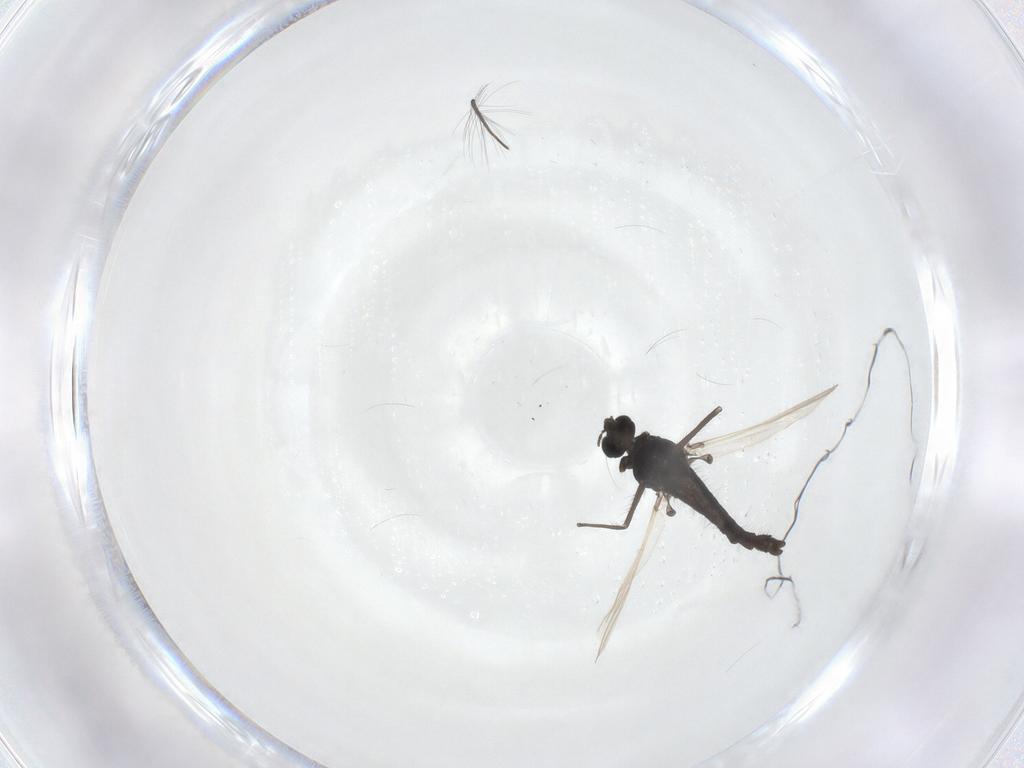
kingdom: Animalia
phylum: Arthropoda
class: Insecta
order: Diptera
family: Chironomidae
